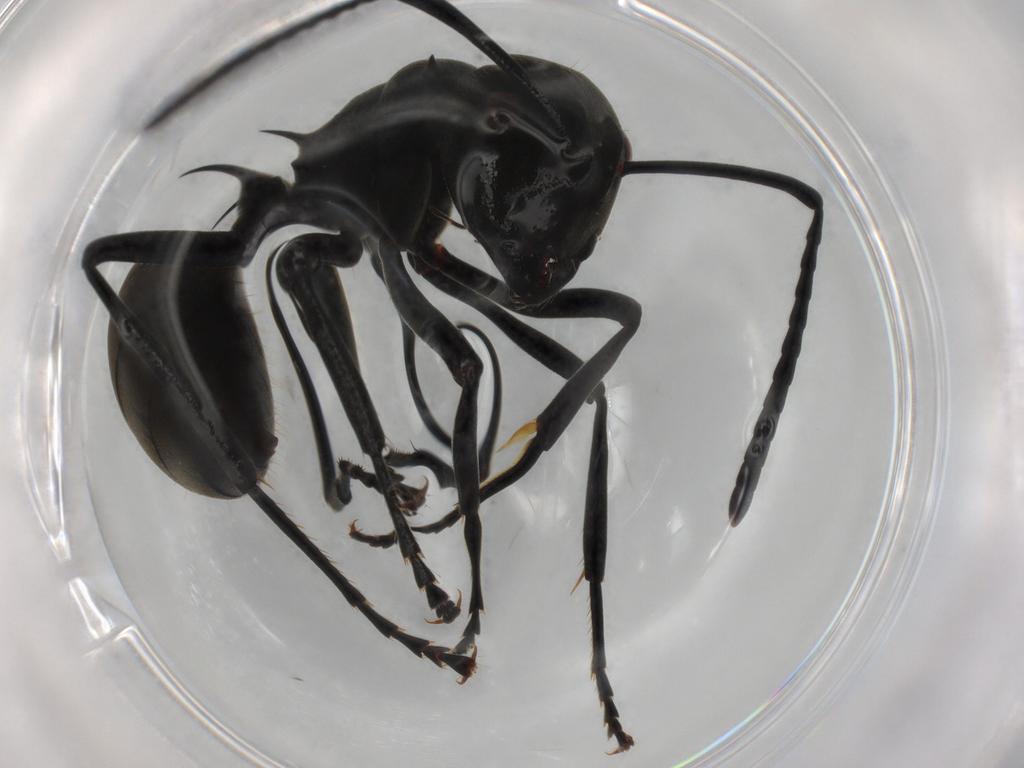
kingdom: Animalia
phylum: Arthropoda
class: Insecta
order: Hymenoptera
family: Formicidae
